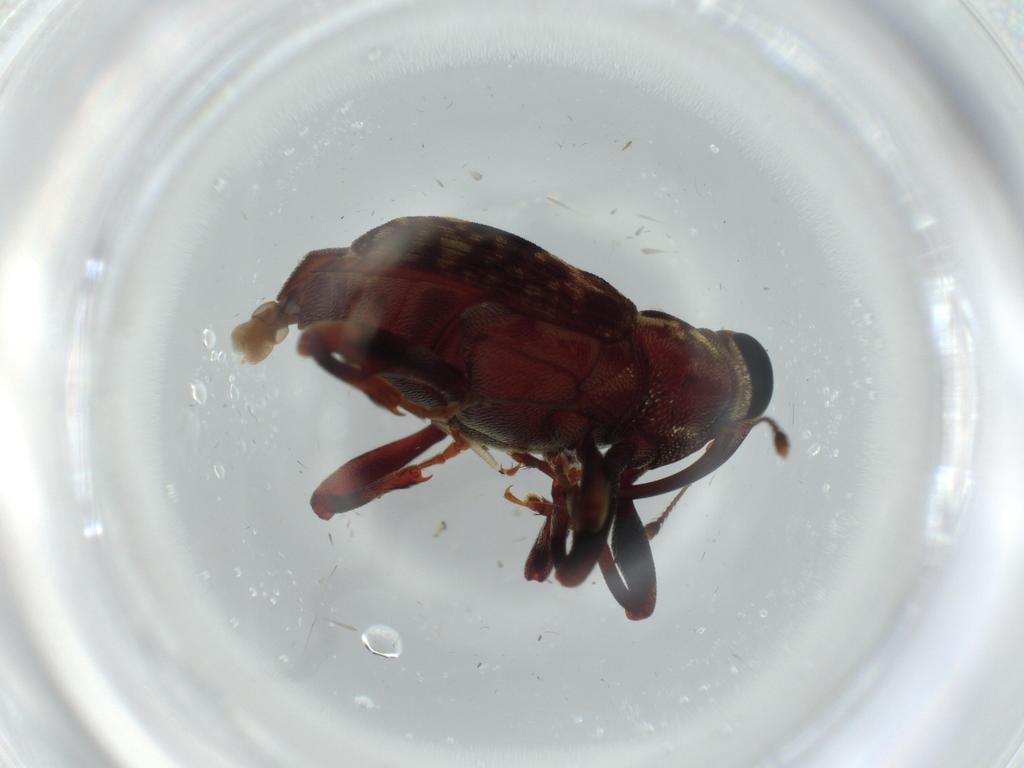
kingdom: Animalia
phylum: Arthropoda
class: Insecta
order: Coleoptera
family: Curculionidae
